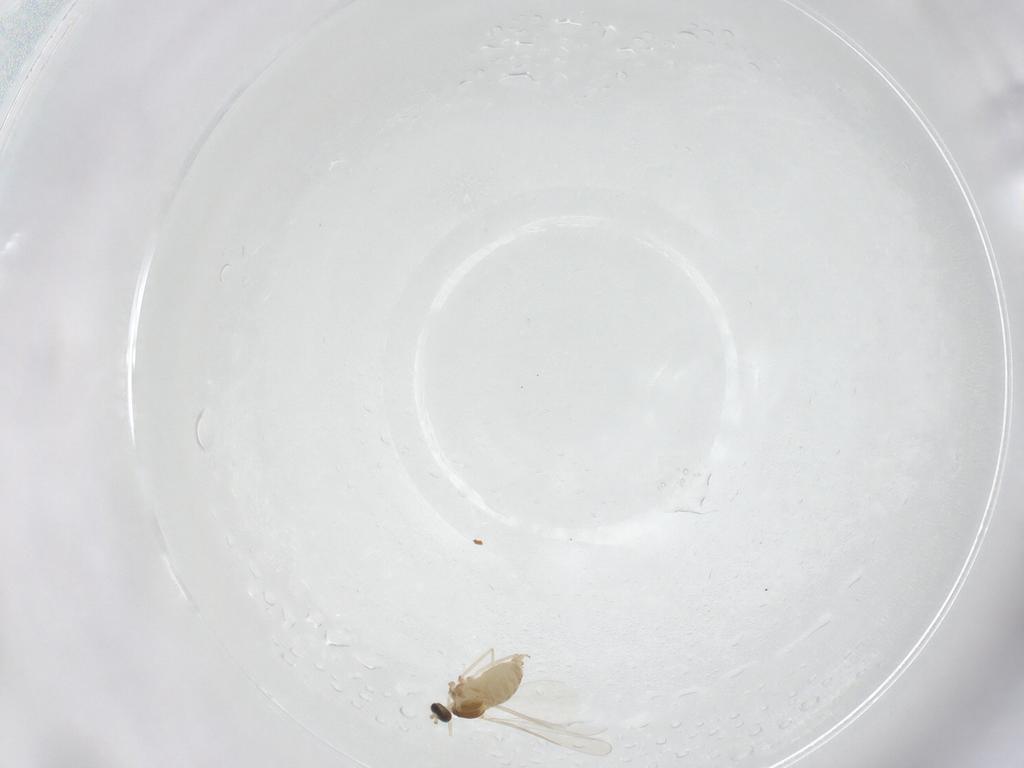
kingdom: Animalia
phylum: Arthropoda
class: Insecta
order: Diptera
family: Cecidomyiidae
